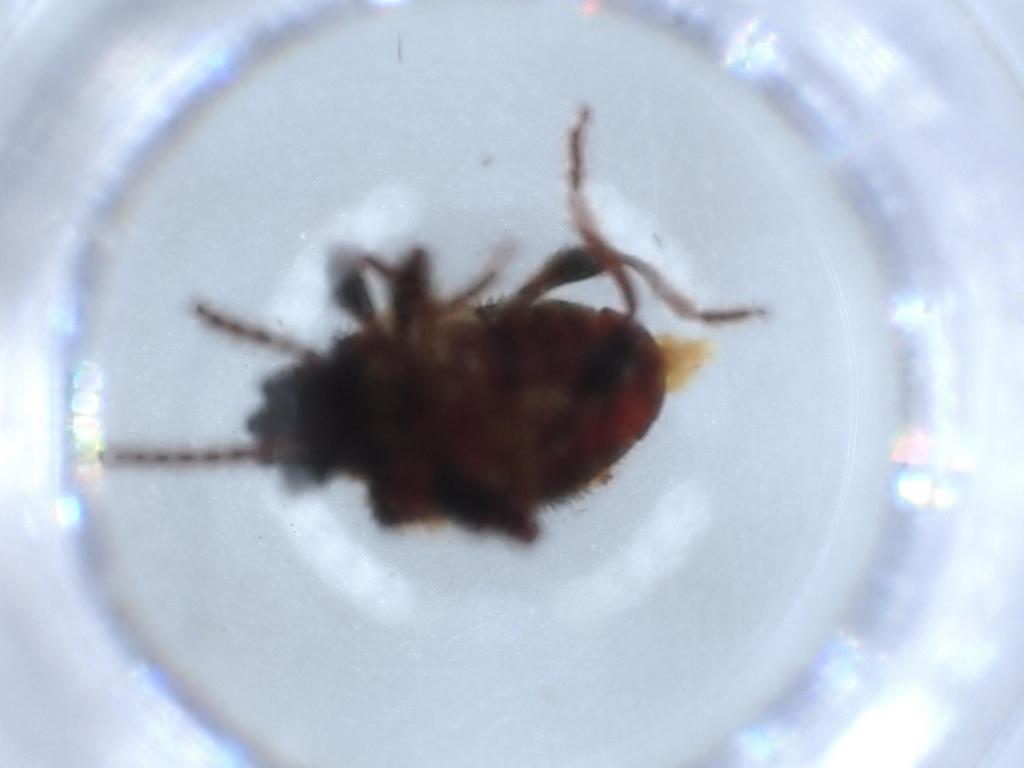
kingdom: Animalia
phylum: Arthropoda
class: Insecta
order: Coleoptera
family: Ptinidae
